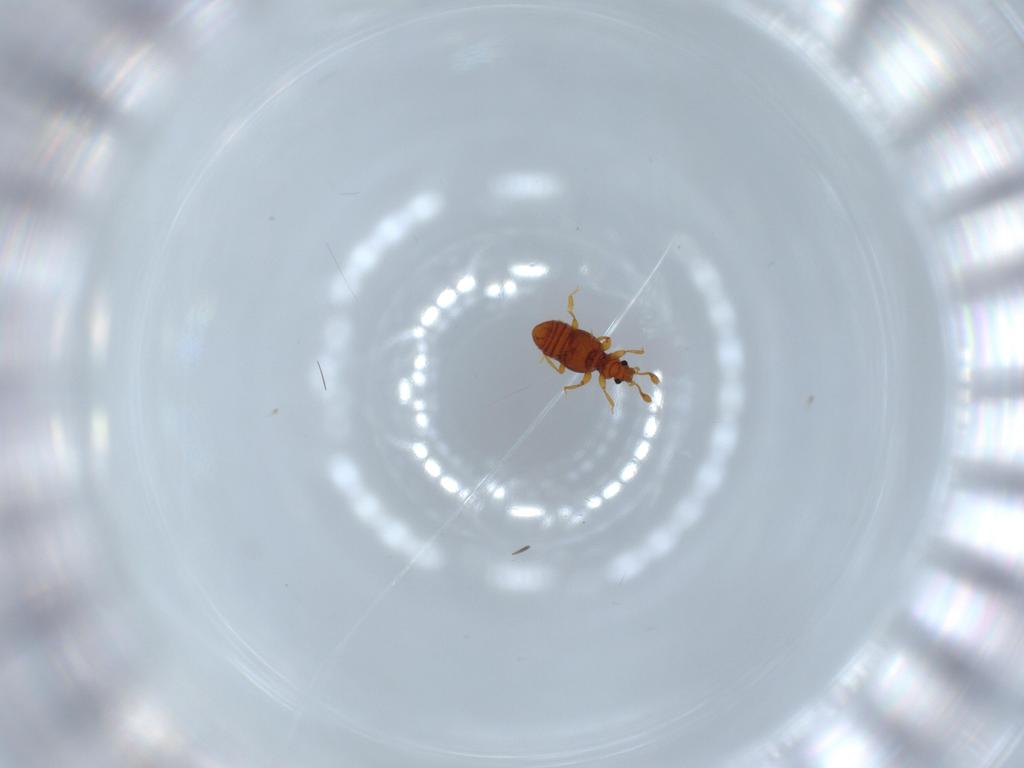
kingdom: Animalia
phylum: Arthropoda
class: Insecta
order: Coleoptera
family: Staphylinidae
